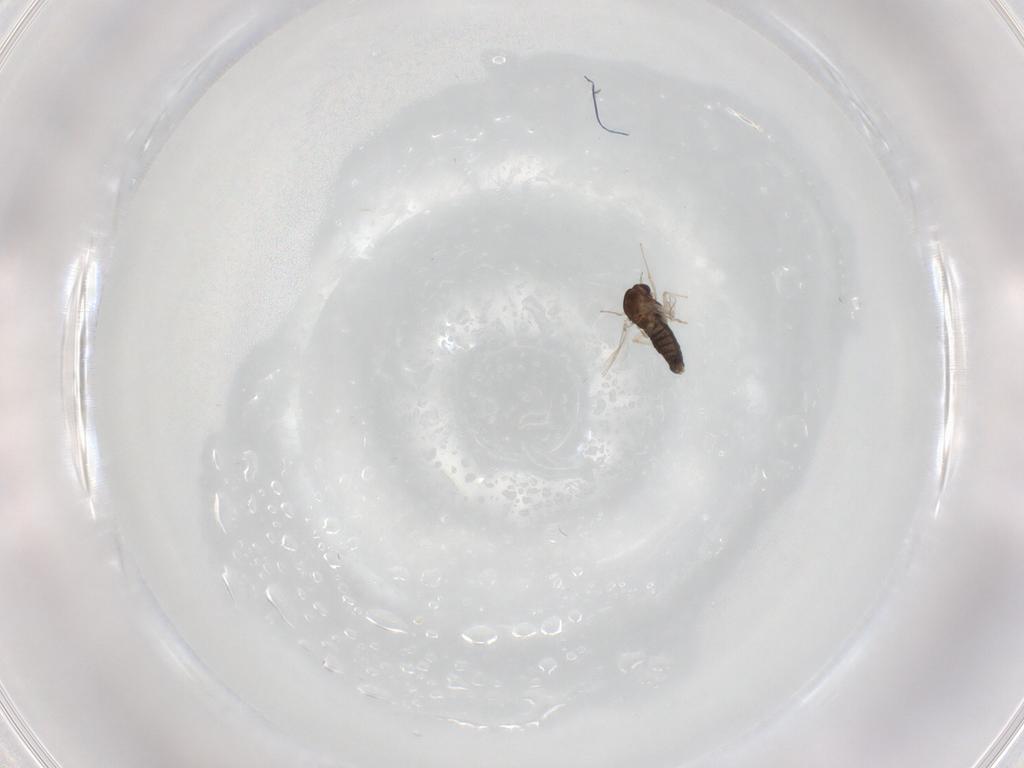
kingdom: Animalia
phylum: Arthropoda
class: Insecta
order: Diptera
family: Chironomidae
